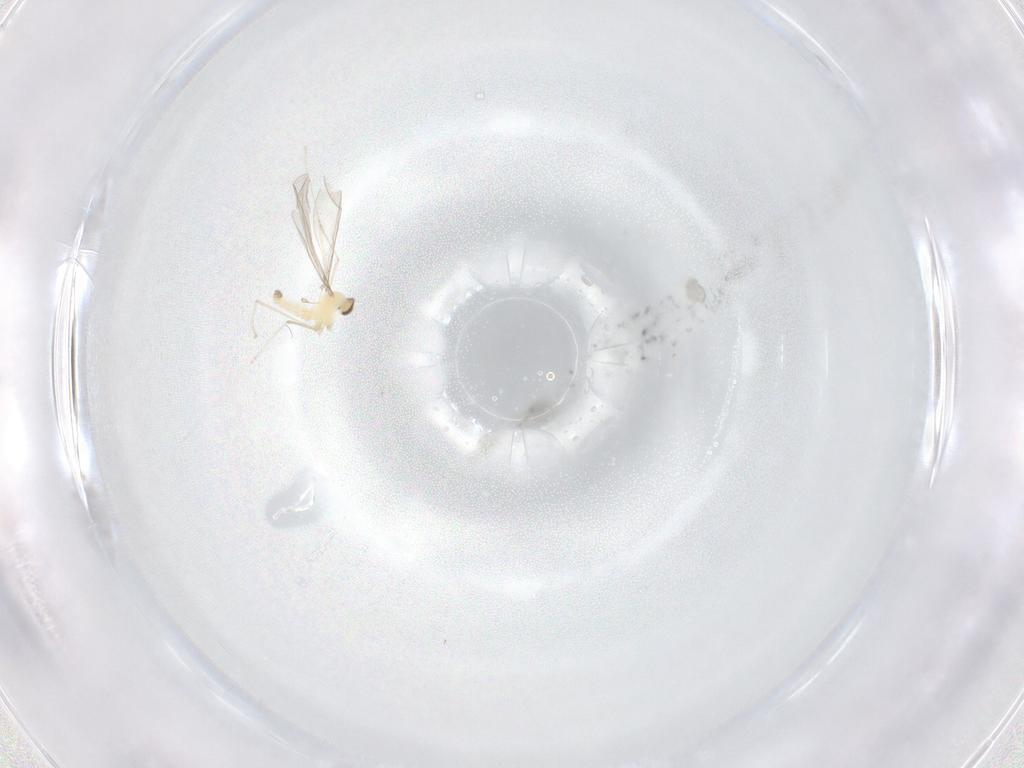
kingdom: Animalia
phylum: Arthropoda
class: Insecta
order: Diptera
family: Cecidomyiidae
